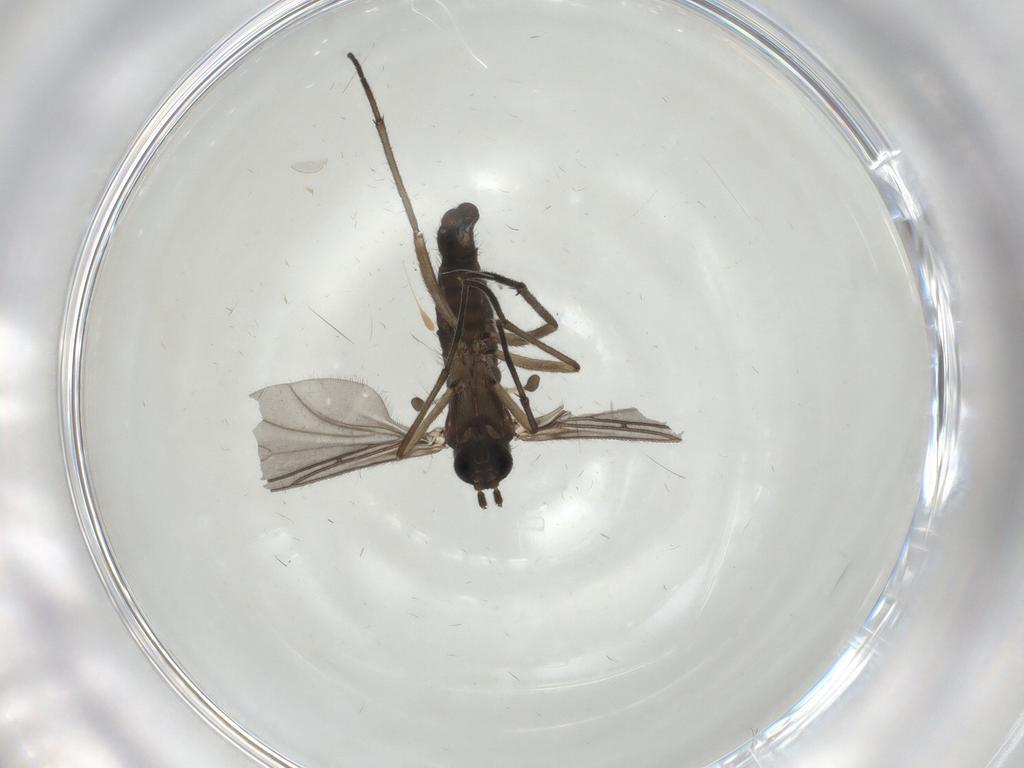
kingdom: Animalia
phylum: Arthropoda
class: Insecta
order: Diptera
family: Sciaridae
